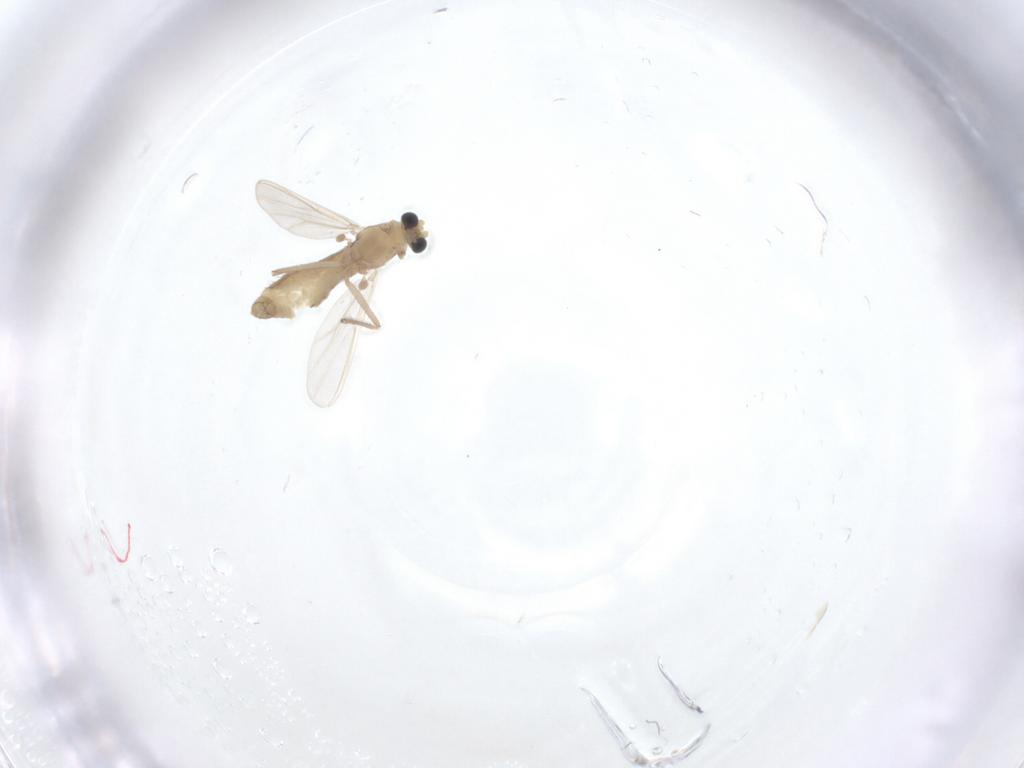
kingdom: Animalia
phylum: Arthropoda
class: Insecta
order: Diptera
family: Chironomidae
